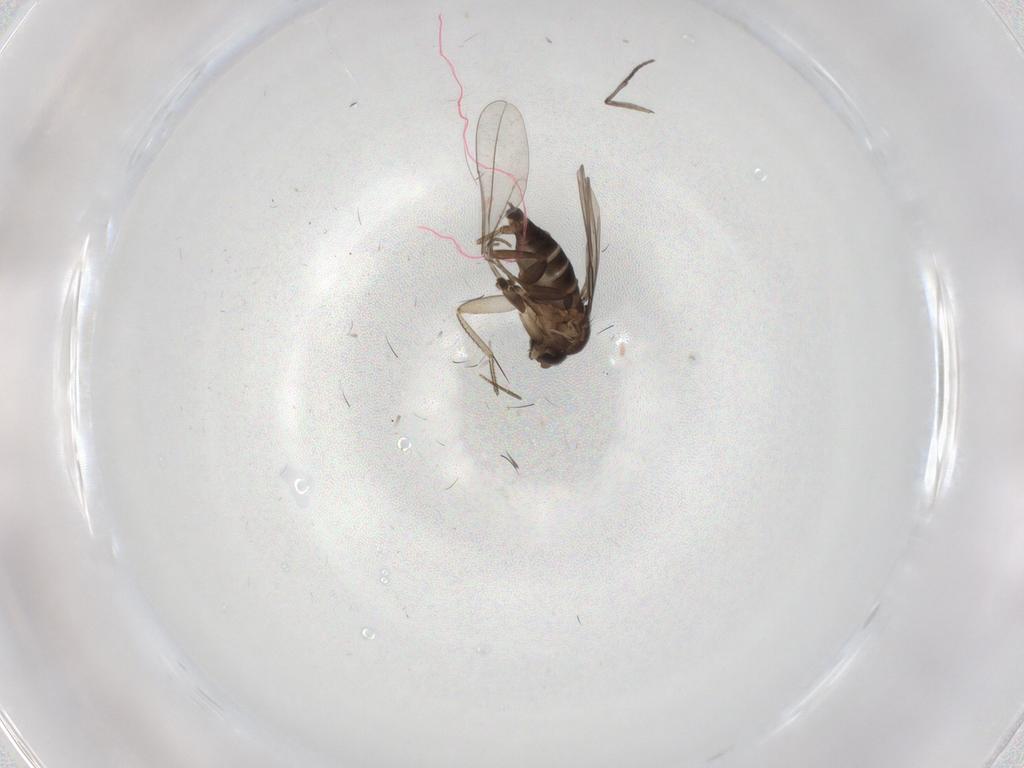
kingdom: Animalia
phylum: Arthropoda
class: Insecta
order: Diptera
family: Phoridae
